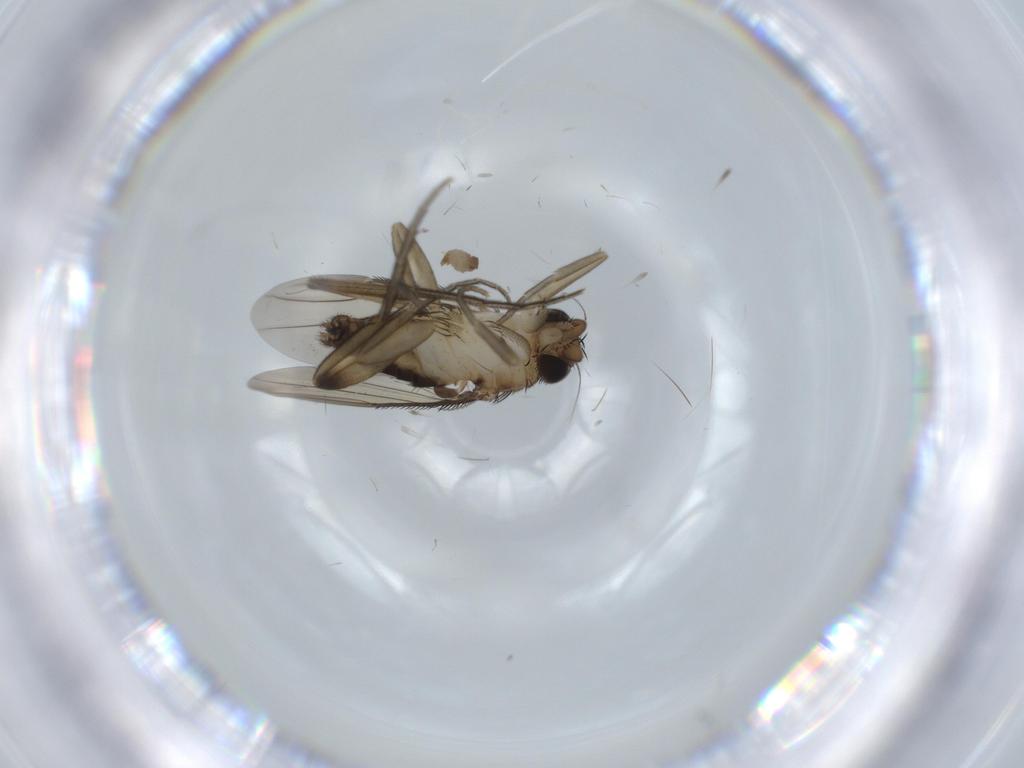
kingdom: Animalia
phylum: Arthropoda
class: Insecta
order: Diptera
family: Phoridae
